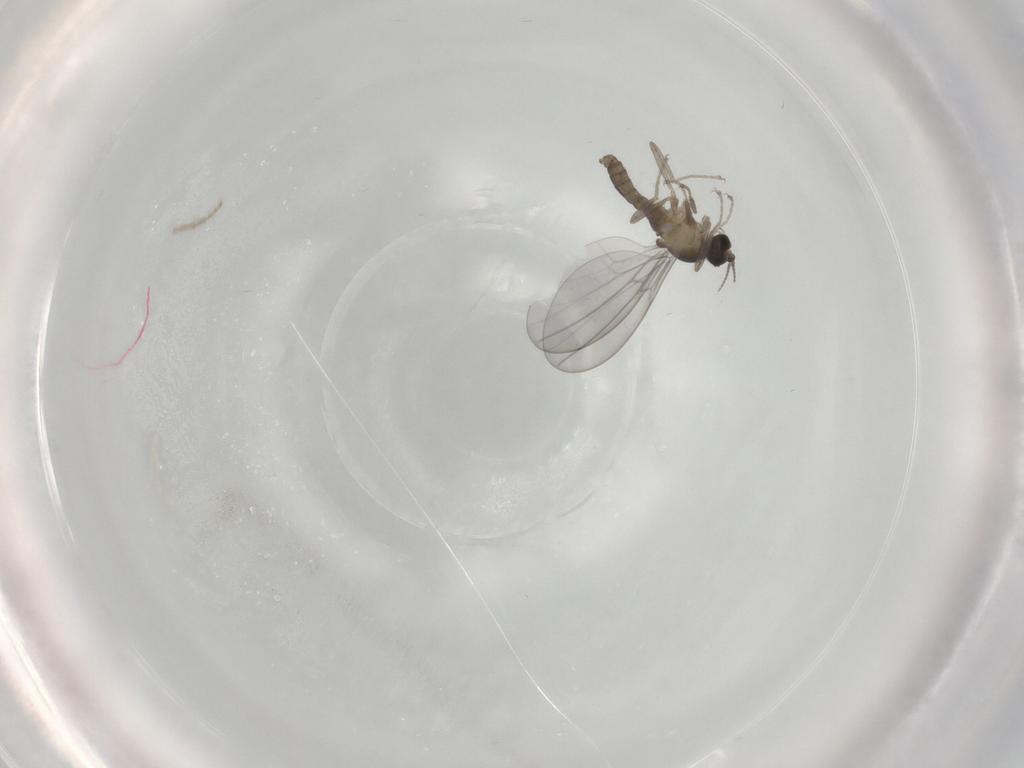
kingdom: Animalia
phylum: Arthropoda
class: Insecta
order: Diptera
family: Cecidomyiidae
